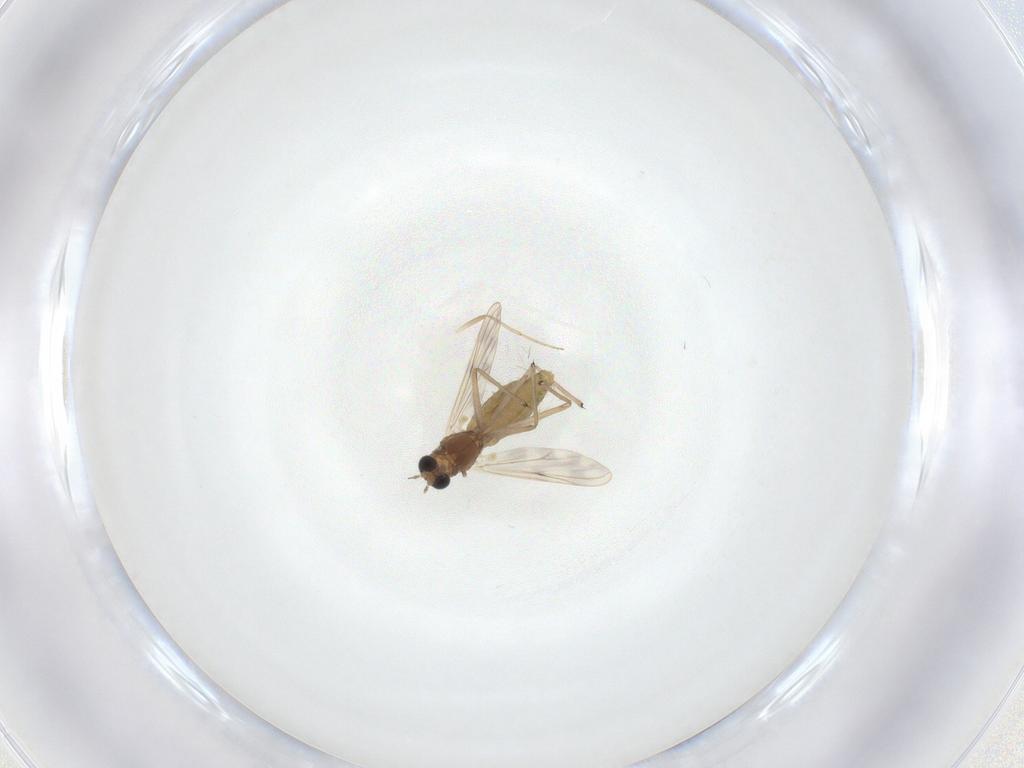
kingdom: Animalia
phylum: Arthropoda
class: Insecta
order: Diptera
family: Chironomidae
